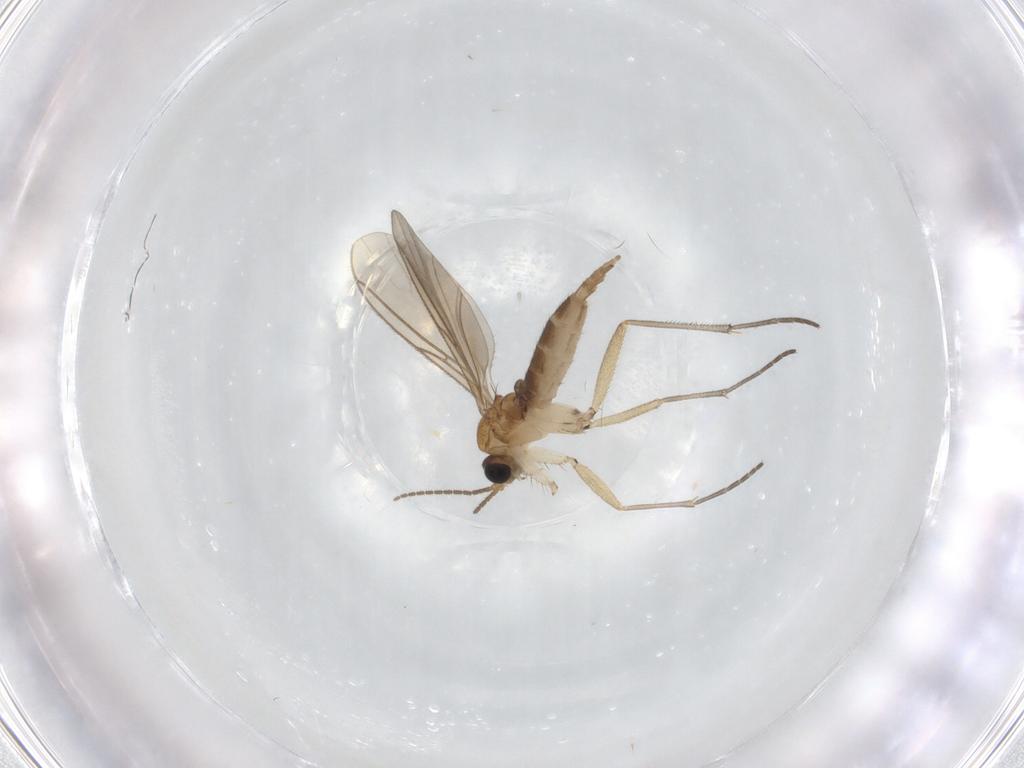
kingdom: Animalia
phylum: Arthropoda
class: Insecta
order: Diptera
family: Sciaridae
